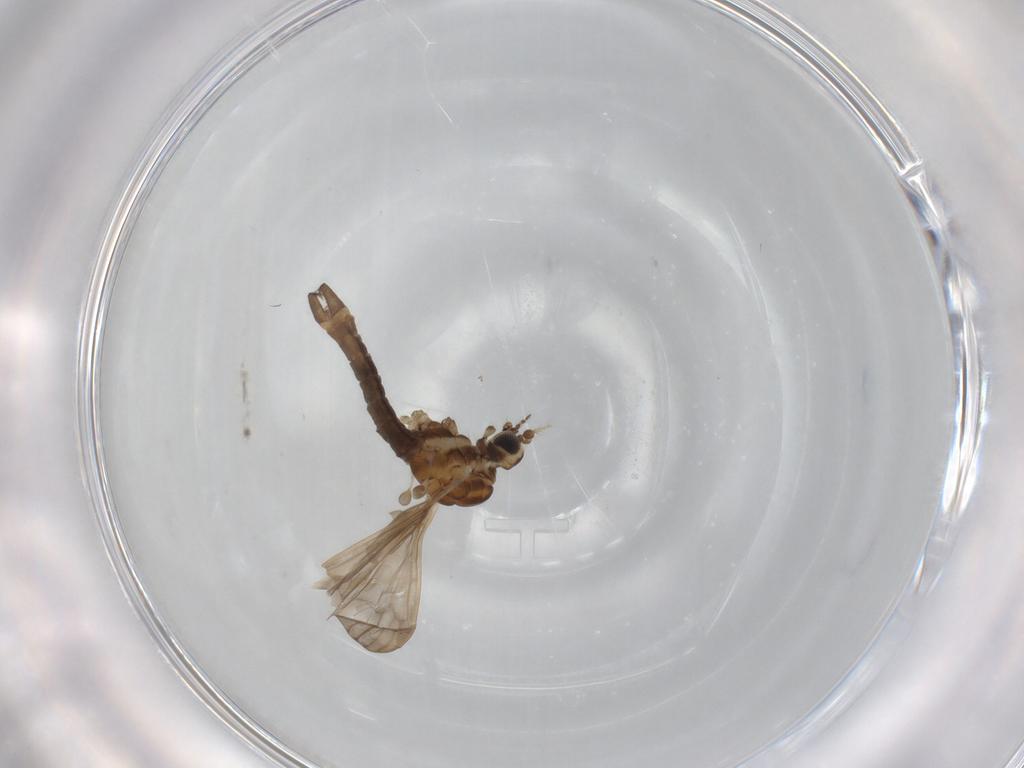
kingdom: Animalia
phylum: Arthropoda
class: Insecta
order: Diptera
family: Limoniidae
